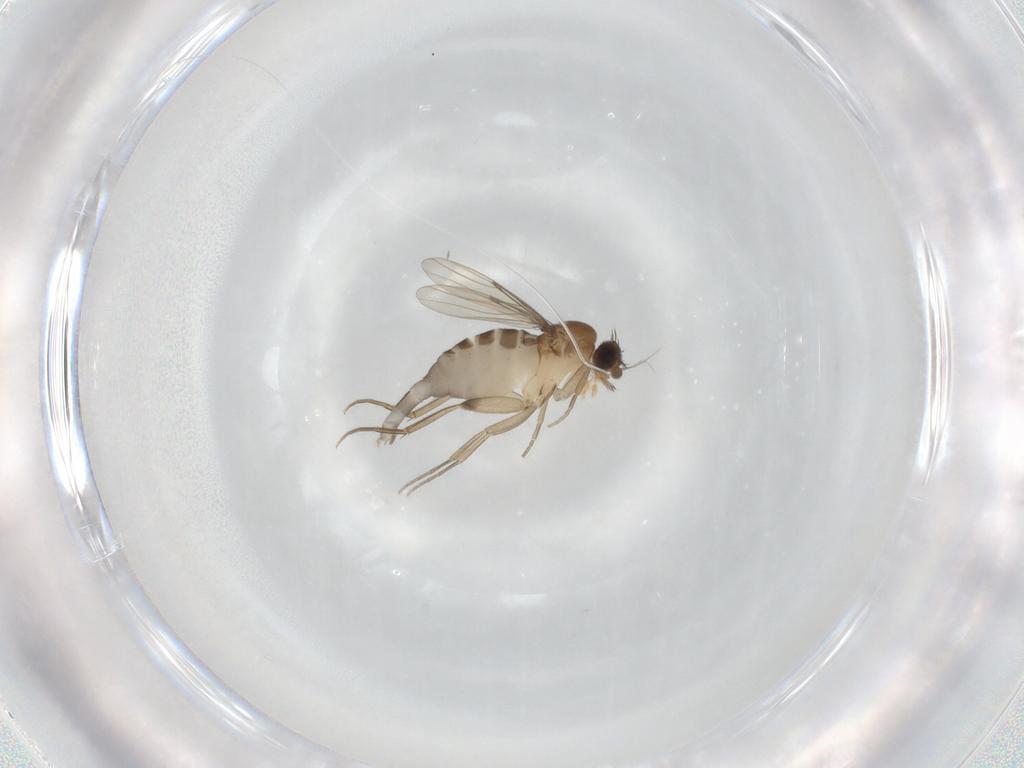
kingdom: Animalia
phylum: Arthropoda
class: Insecta
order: Diptera
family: Phoridae
